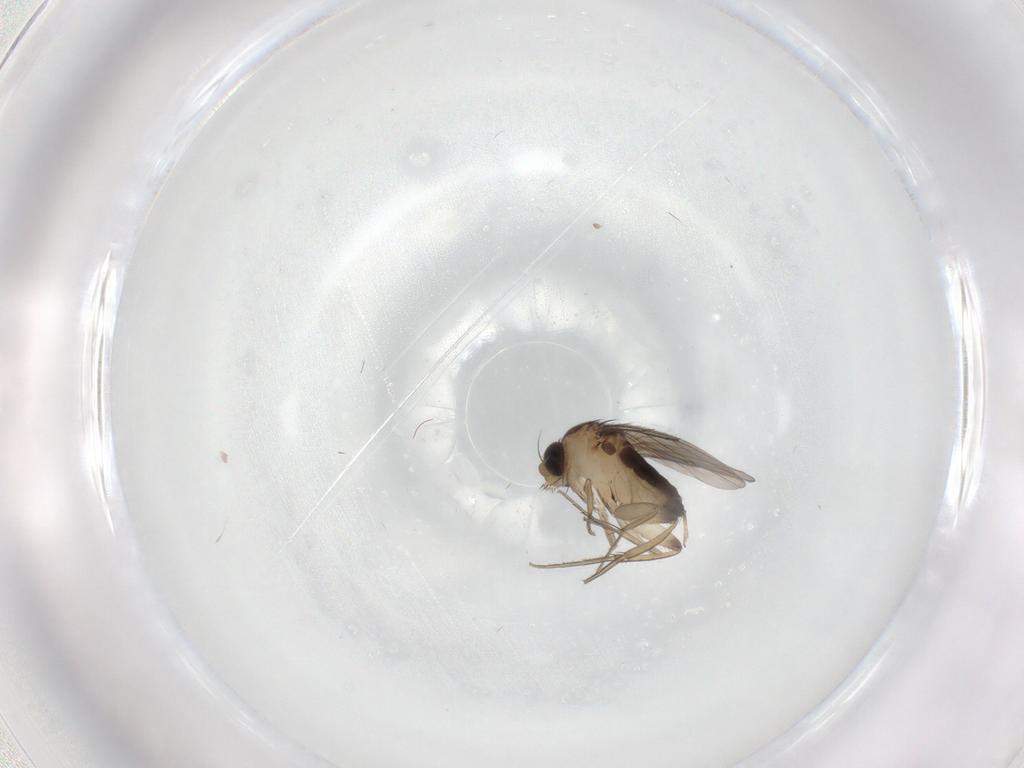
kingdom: Animalia
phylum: Arthropoda
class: Insecta
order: Diptera
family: Phoridae
